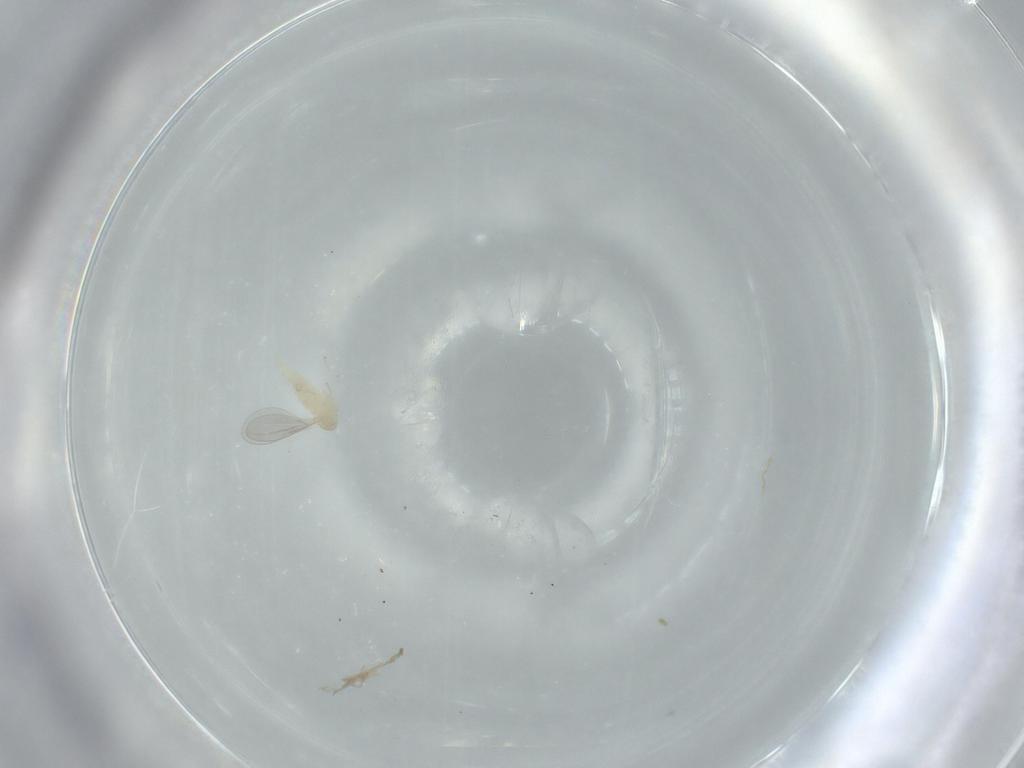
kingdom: Animalia
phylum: Arthropoda
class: Insecta
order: Diptera
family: Cecidomyiidae
